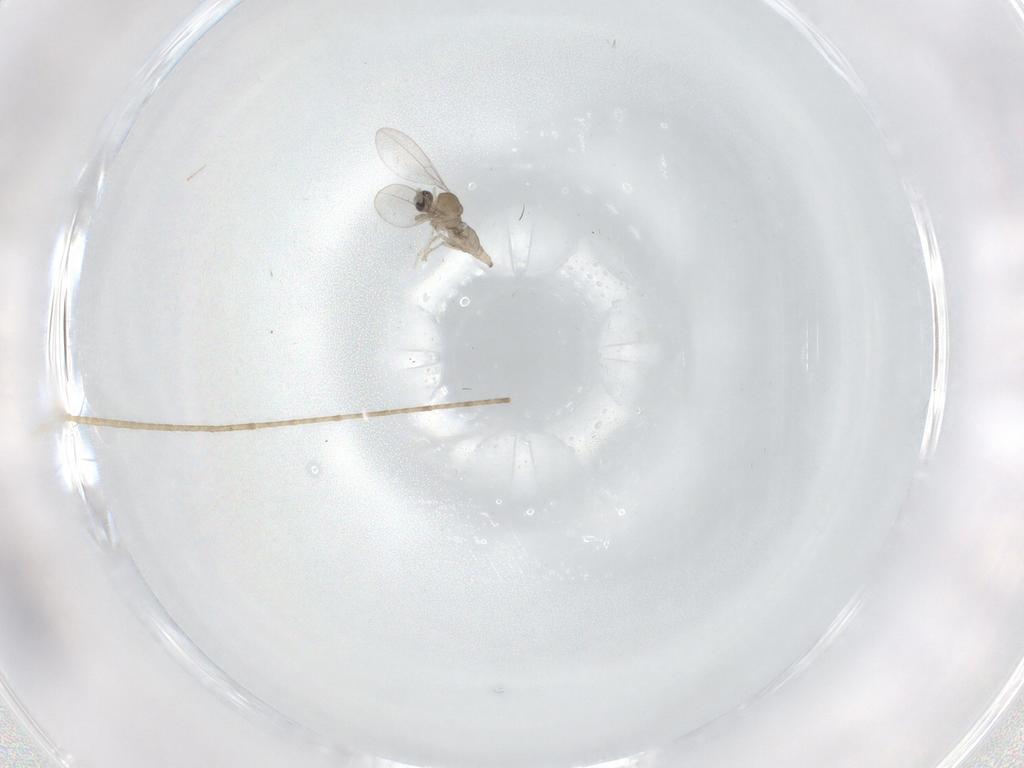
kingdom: Animalia
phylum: Arthropoda
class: Insecta
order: Diptera
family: Cecidomyiidae
